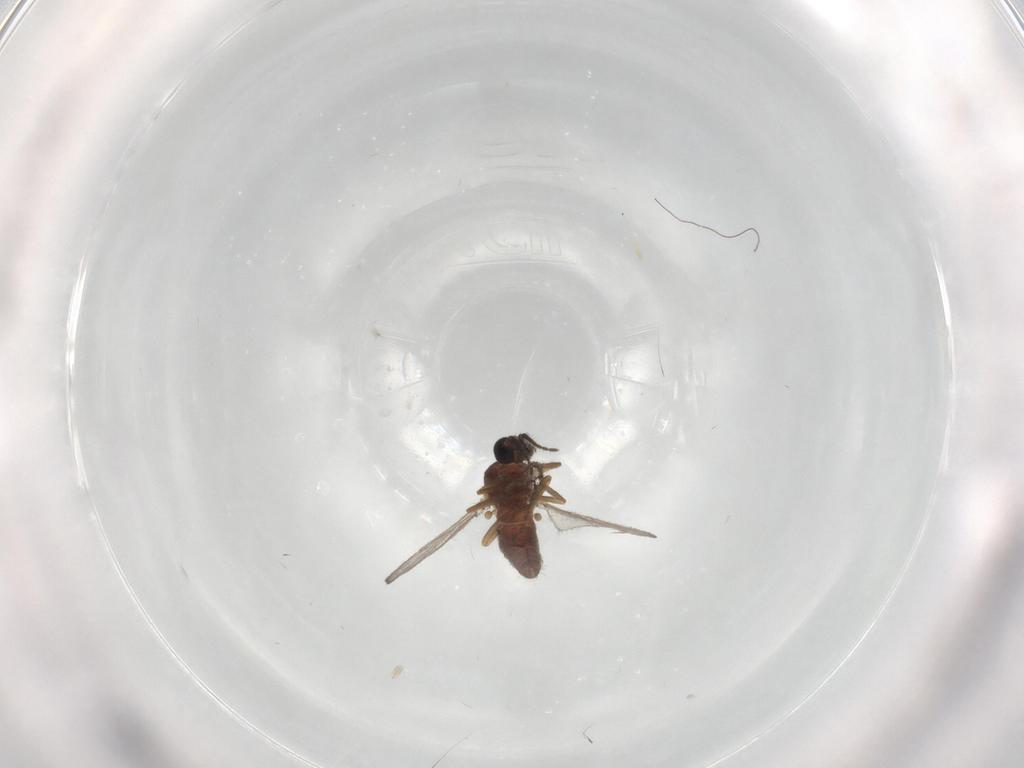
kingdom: Animalia
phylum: Arthropoda
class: Insecta
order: Diptera
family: Ceratopogonidae
